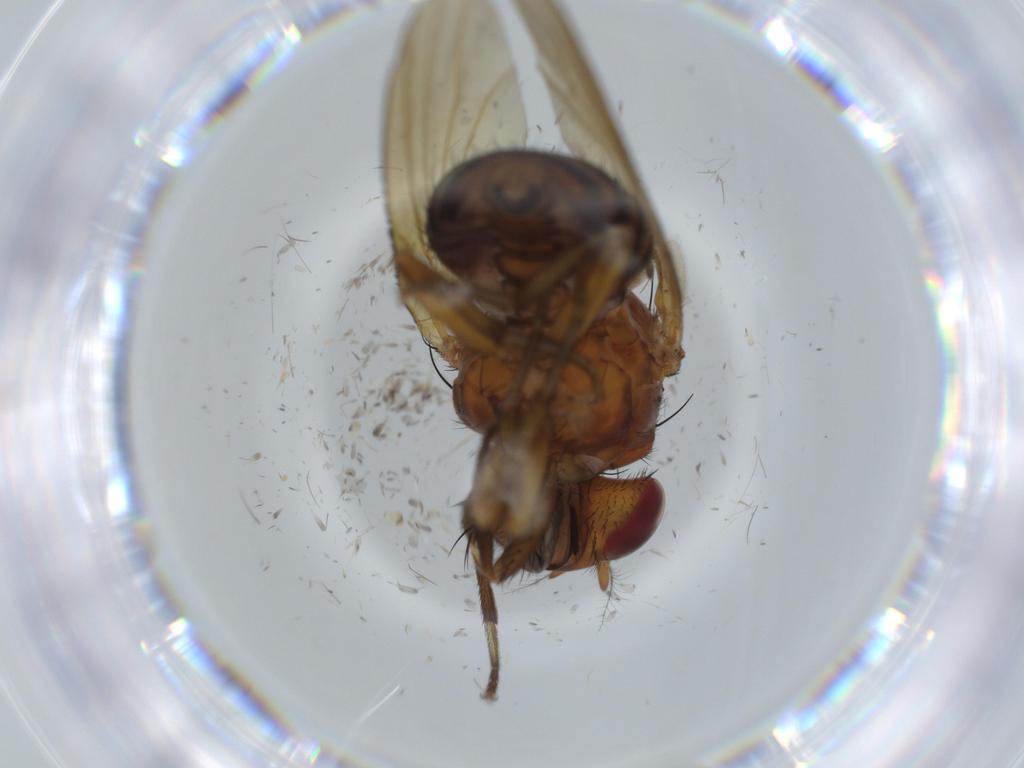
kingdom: Animalia
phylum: Arthropoda
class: Insecta
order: Diptera
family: Sciaridae
